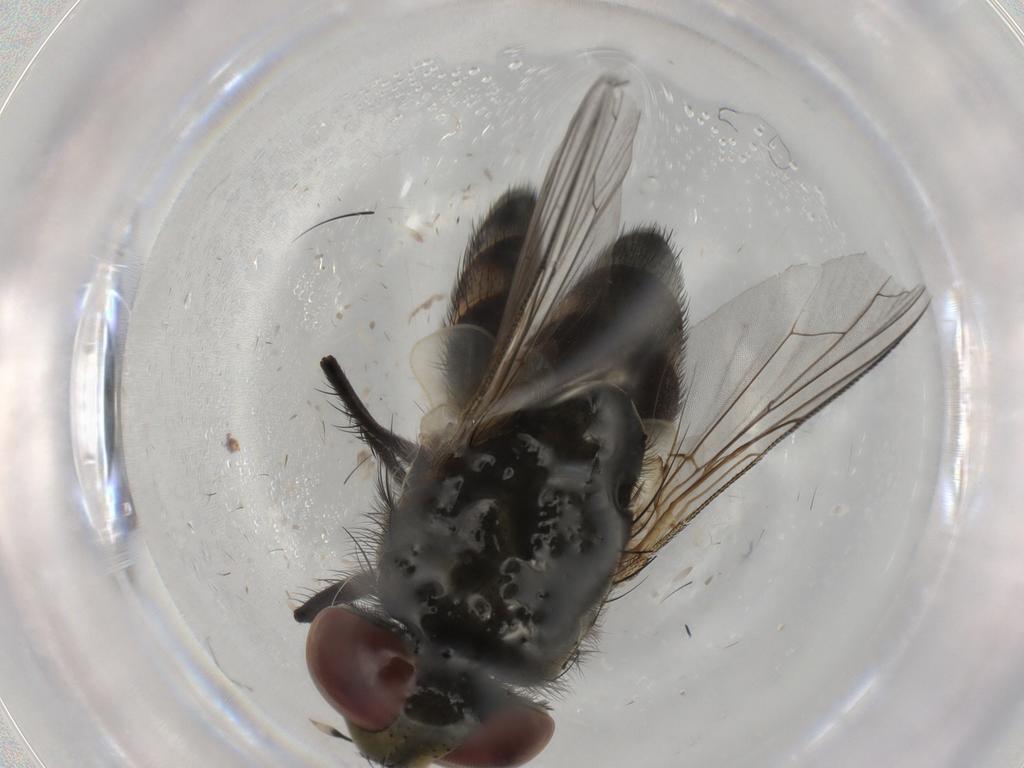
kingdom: Animalia
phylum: Arthropoda
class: Insecta
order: Diptera
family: Sarcophagidae
